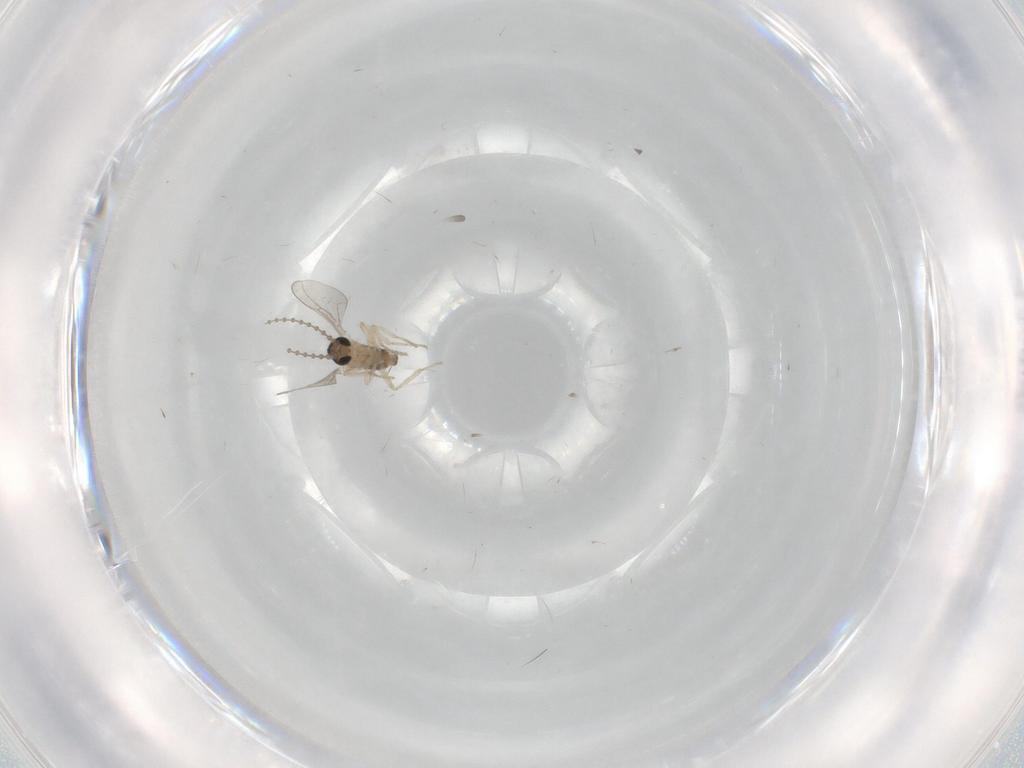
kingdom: Animalia
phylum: Arthropoda
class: Insecta
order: Diptera
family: Cecidomyiidae
